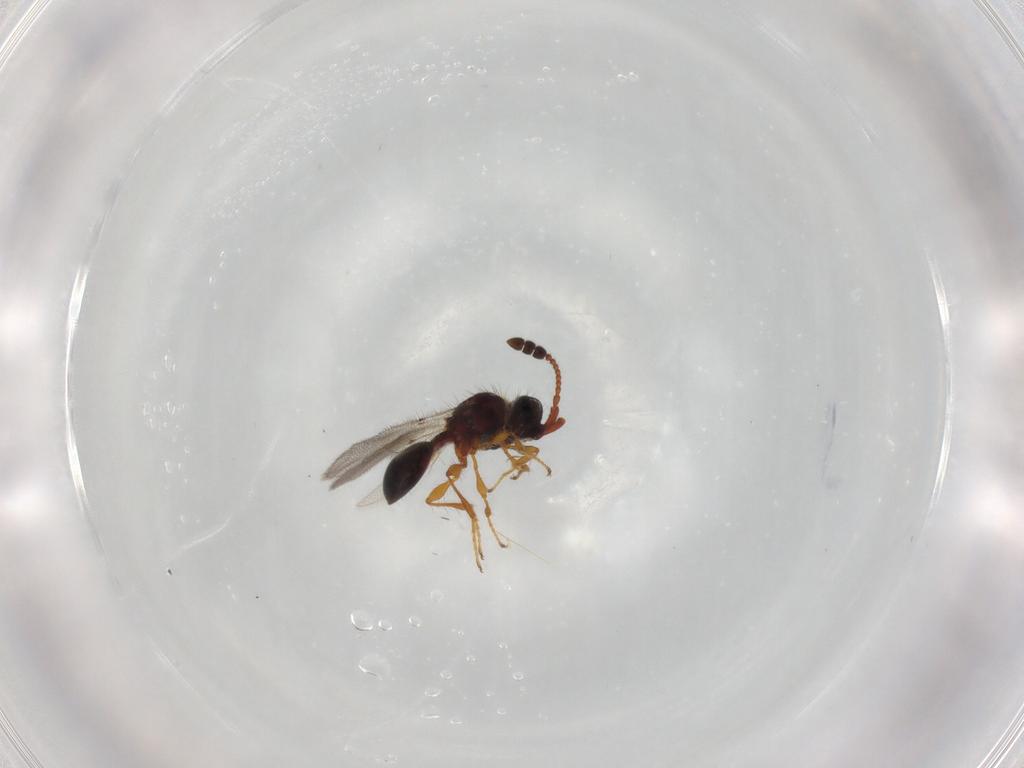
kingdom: Animalia
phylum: Arthropoda
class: Insecta
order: Hymenoptera
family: Diapriidae
